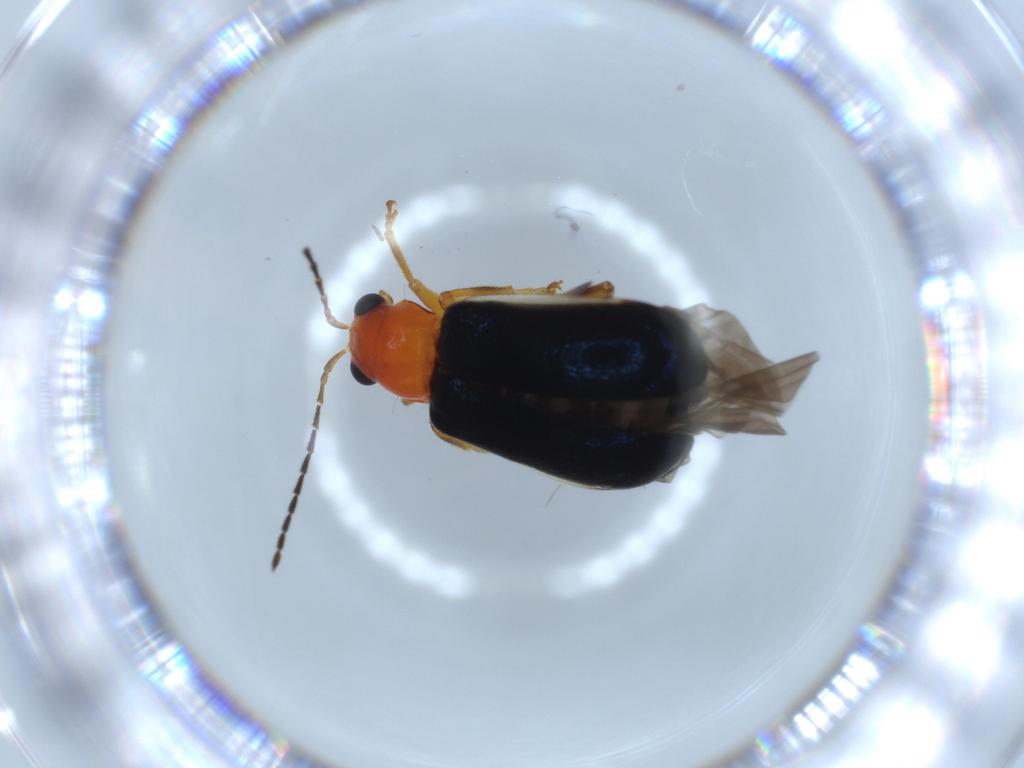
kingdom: Animalia
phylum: Arthropoda
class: Insecta
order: Coleoptera
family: Chrysomelidae
